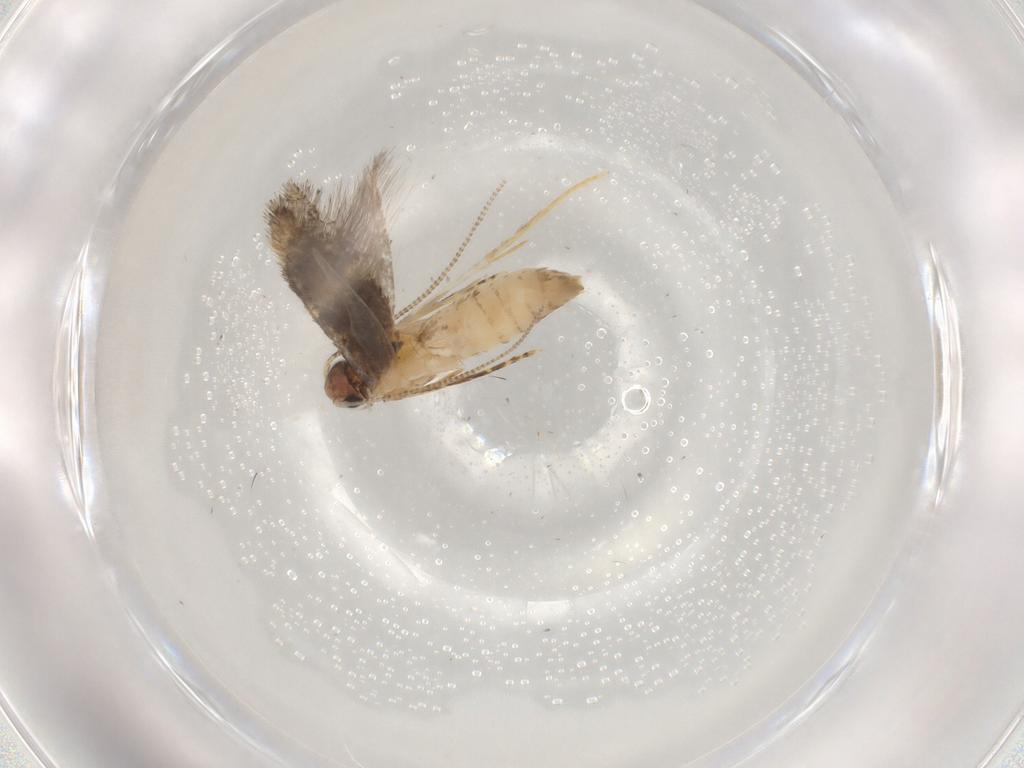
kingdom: Animalia
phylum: Arthropoda
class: Insecta
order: Lepidoptera
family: Tineidae
